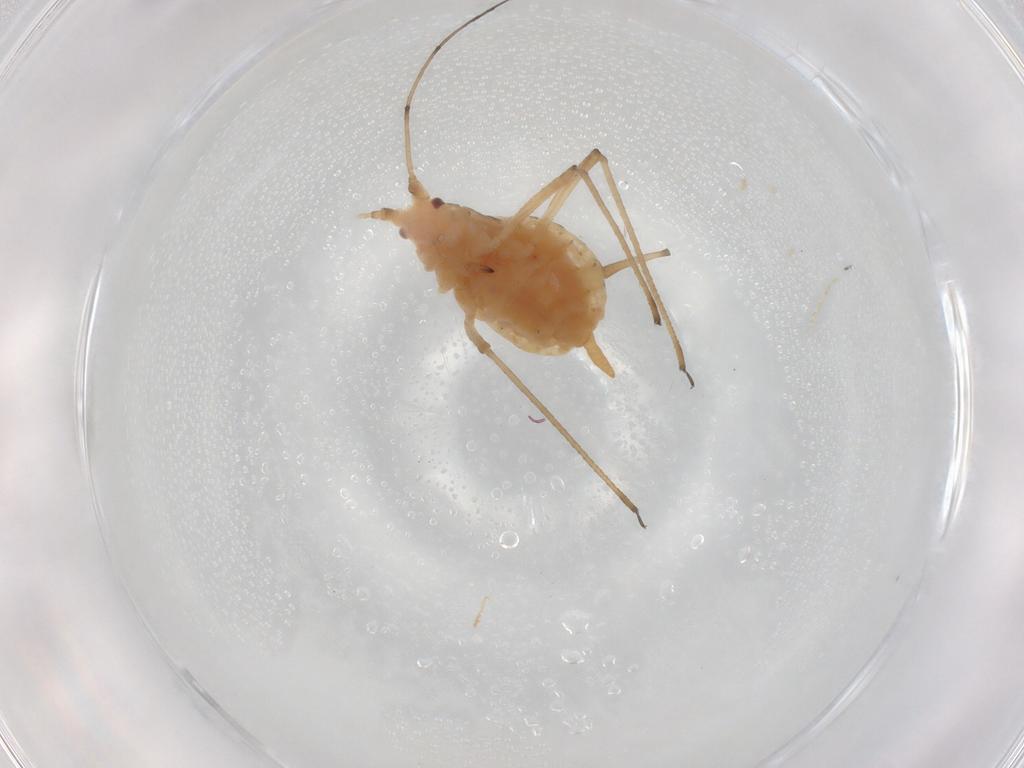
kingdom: Animalia
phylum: Arthropoda
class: Insecta
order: Hemiptera
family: Aphididae
